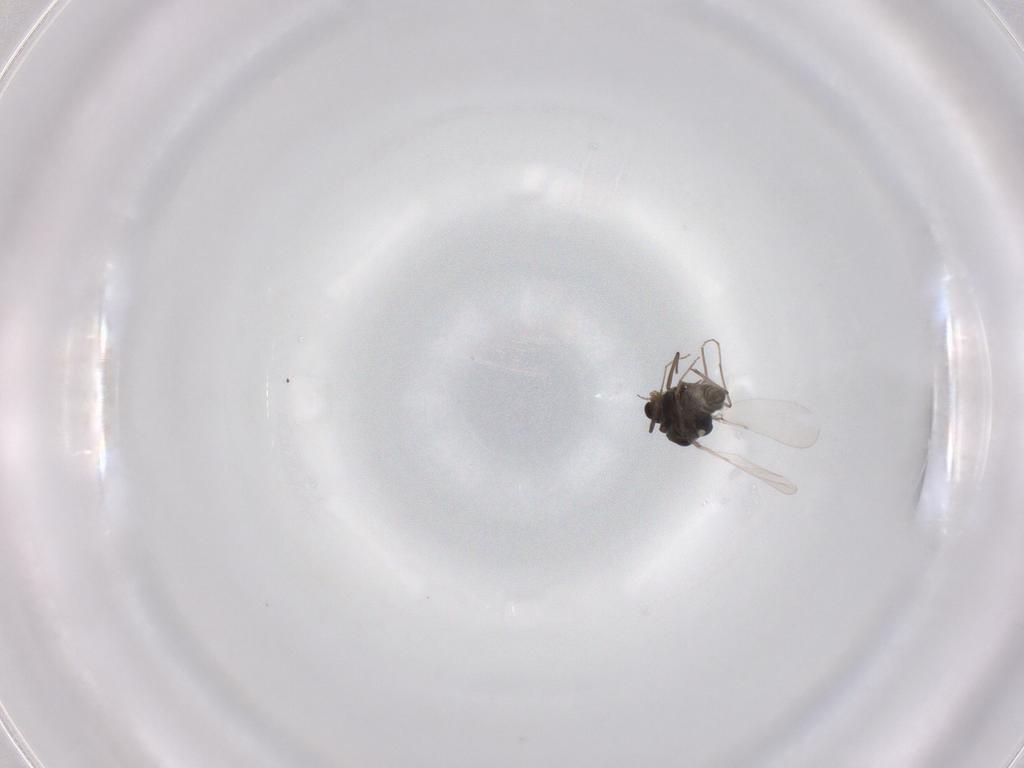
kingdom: Animalia
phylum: Arthropoda
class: Insecta
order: Diptera
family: Chironomidae
